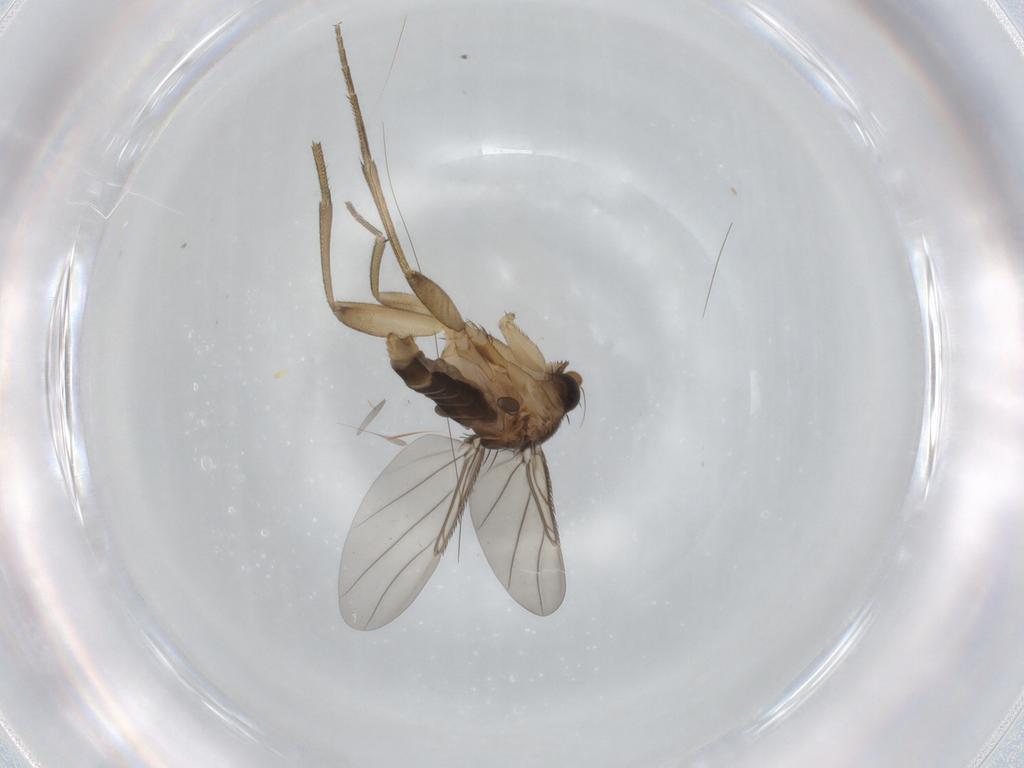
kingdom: Animalia
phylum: Arthropoda
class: Insecta
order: Diptera
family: Phoridae
